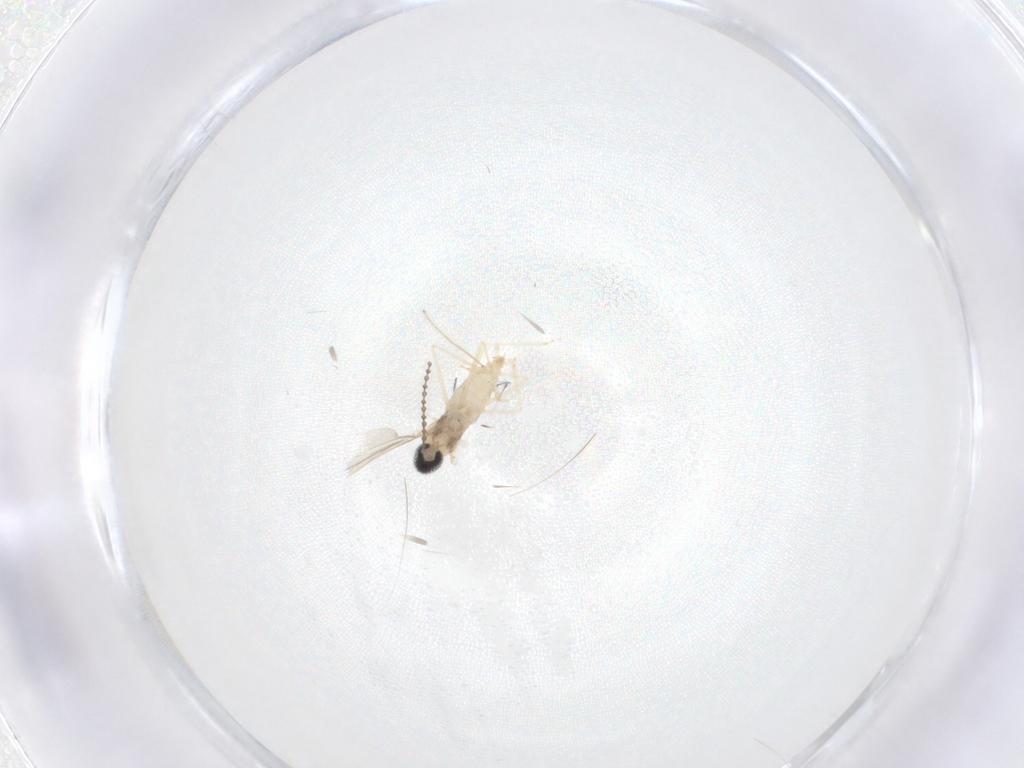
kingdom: Animalia
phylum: Arthropoda
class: Insecta
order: Diptera
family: Cecidomyiidae
